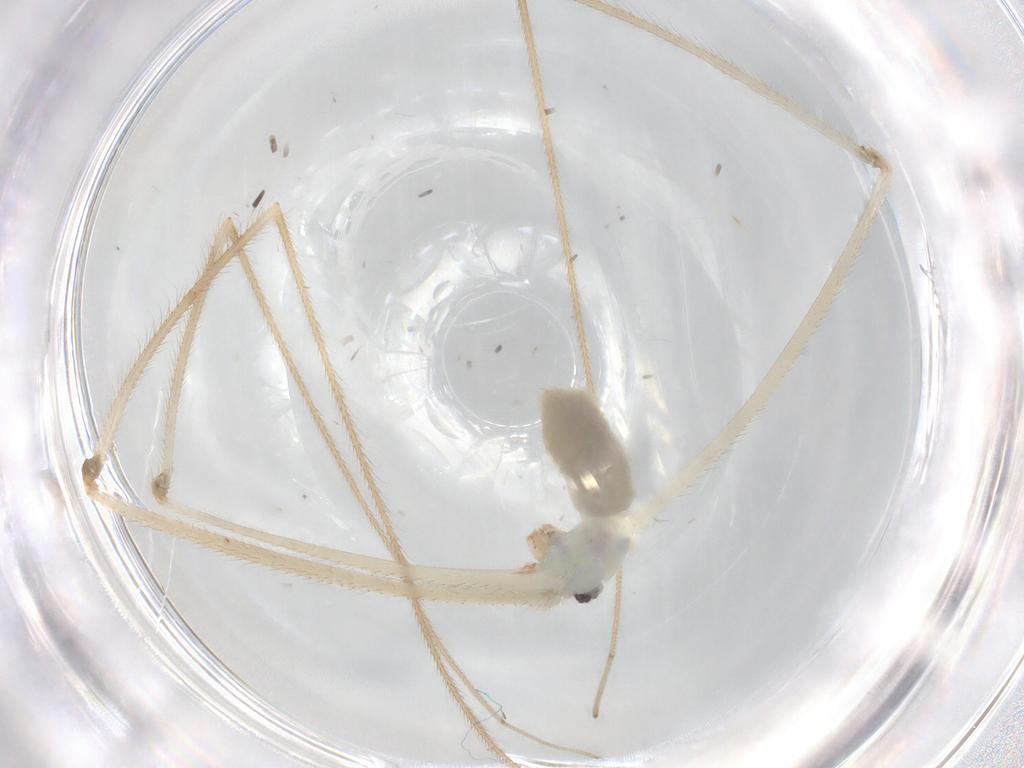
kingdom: Animalia
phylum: Arthropoda
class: Arachnida
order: Araneae
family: Pholcidae
